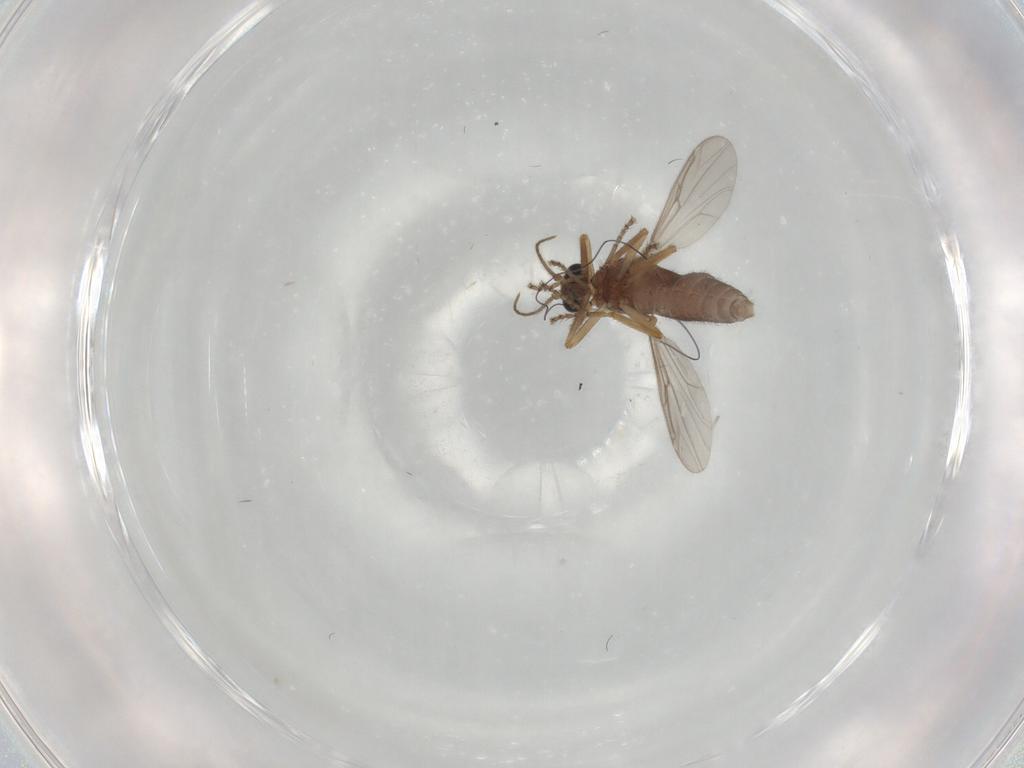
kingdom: Animalia
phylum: Arthropoda
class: Insecta
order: Diptera
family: Ceratopogonidae
